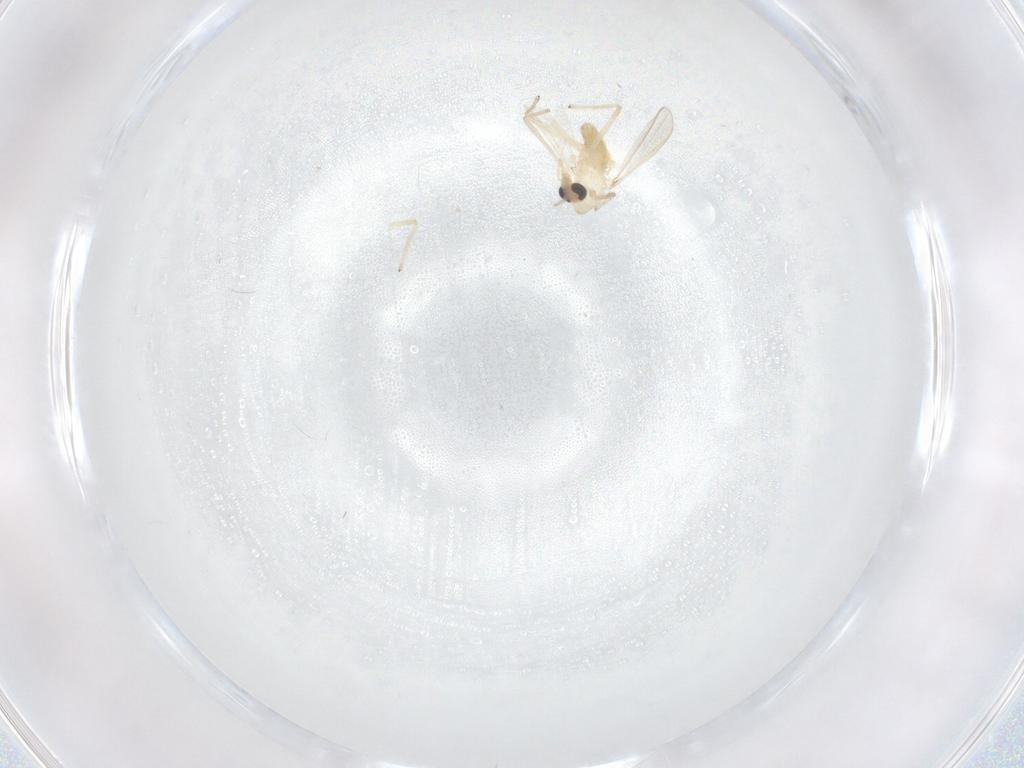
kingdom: Animalia
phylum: Arthropoda
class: Insecta
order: Diptera
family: Chironomidae
